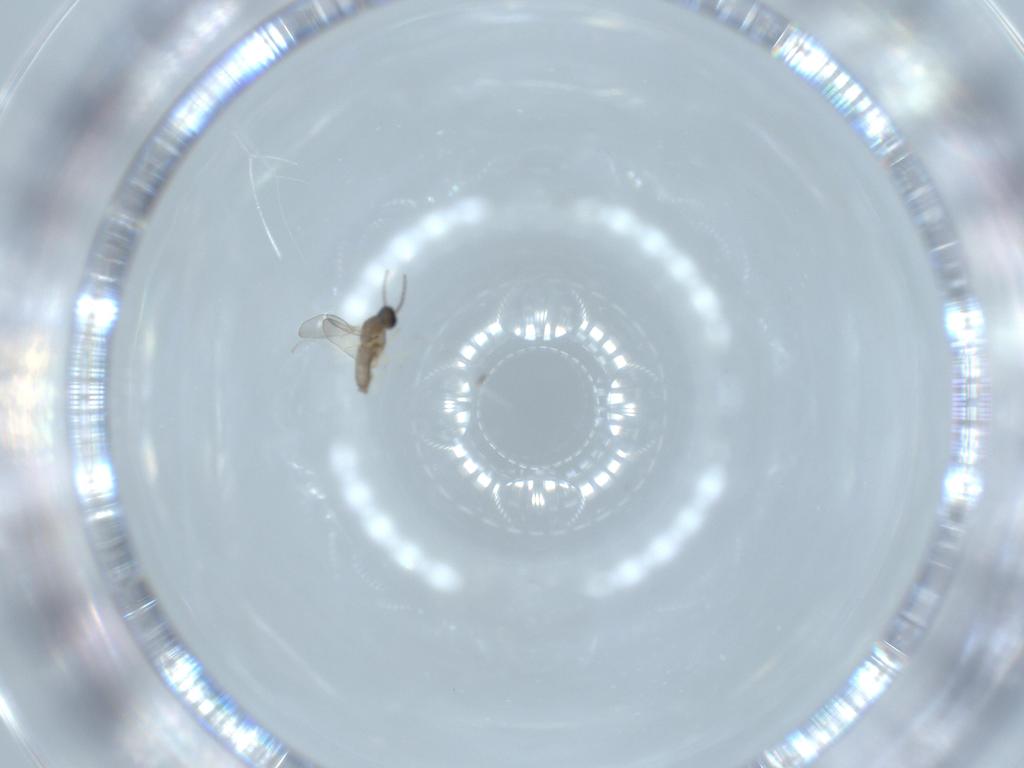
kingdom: Animalia
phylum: Arthropoda
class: Insecta
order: Diptera
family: Cecidomyiidae
